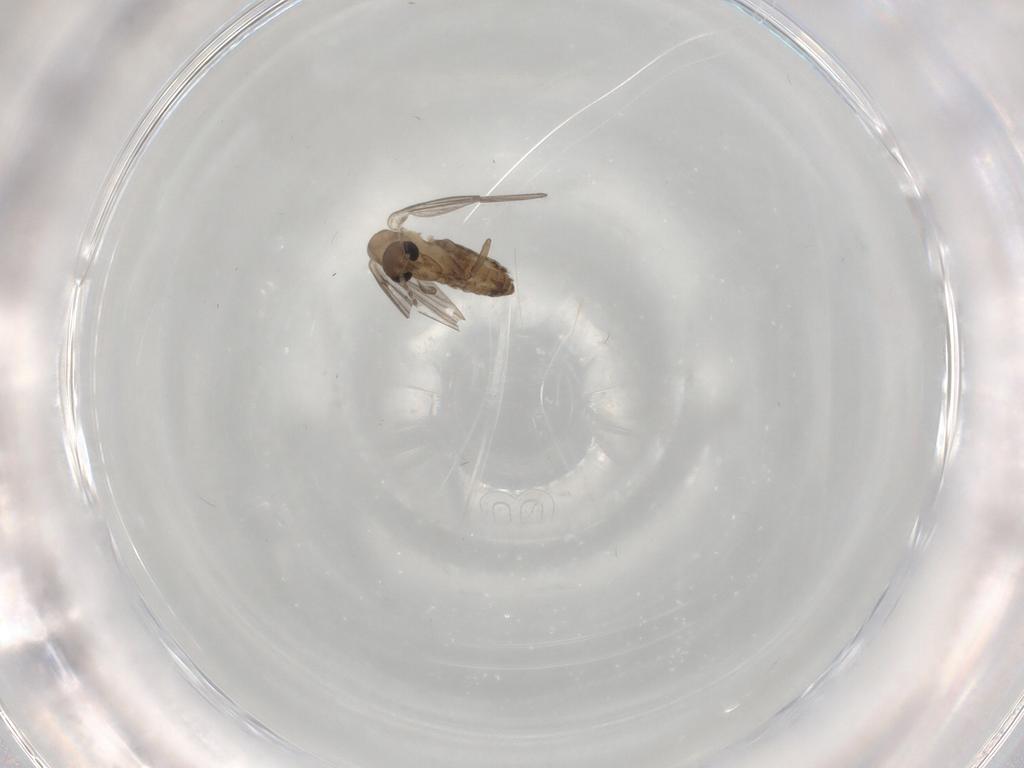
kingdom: Animalia
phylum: Arthropoda
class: Insecta
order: Diptera
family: Psychodidae
